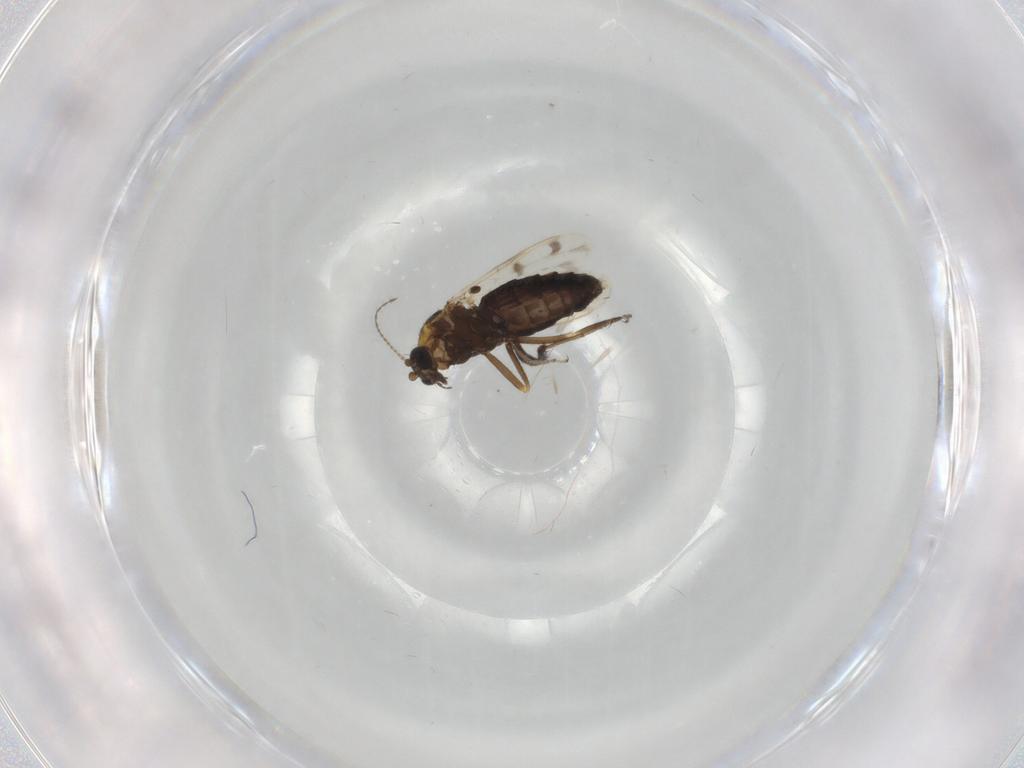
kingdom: Animalia
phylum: Arthropoda
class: Insecta
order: Diptera
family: Ceratopogonidae
